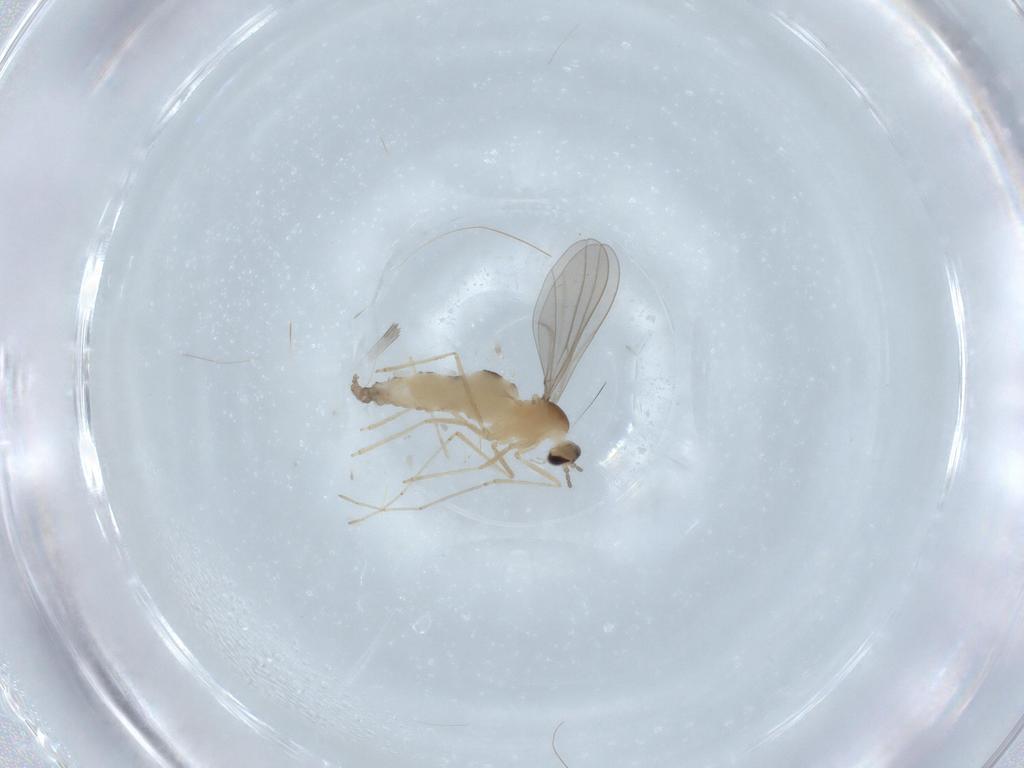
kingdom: Animalia
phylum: Arthropoda
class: Insecta
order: Diptera
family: Cecidomyiidae
